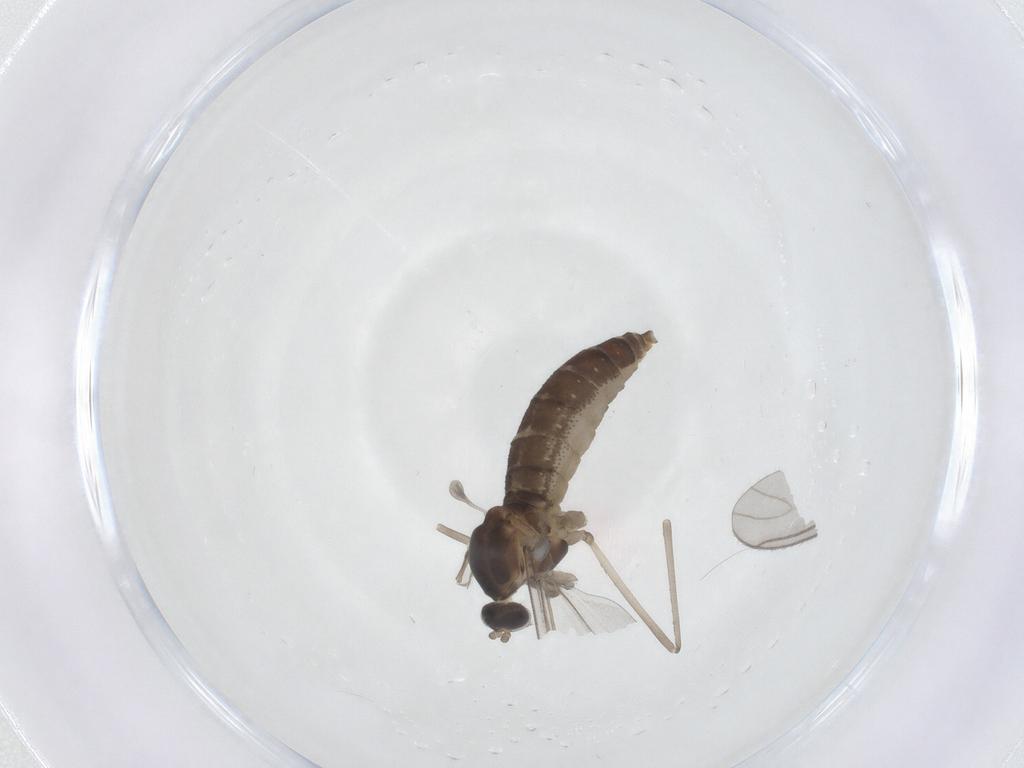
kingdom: Animalia
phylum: Arthropoda
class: Insecta
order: Diptera
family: Cecidomyiidae
